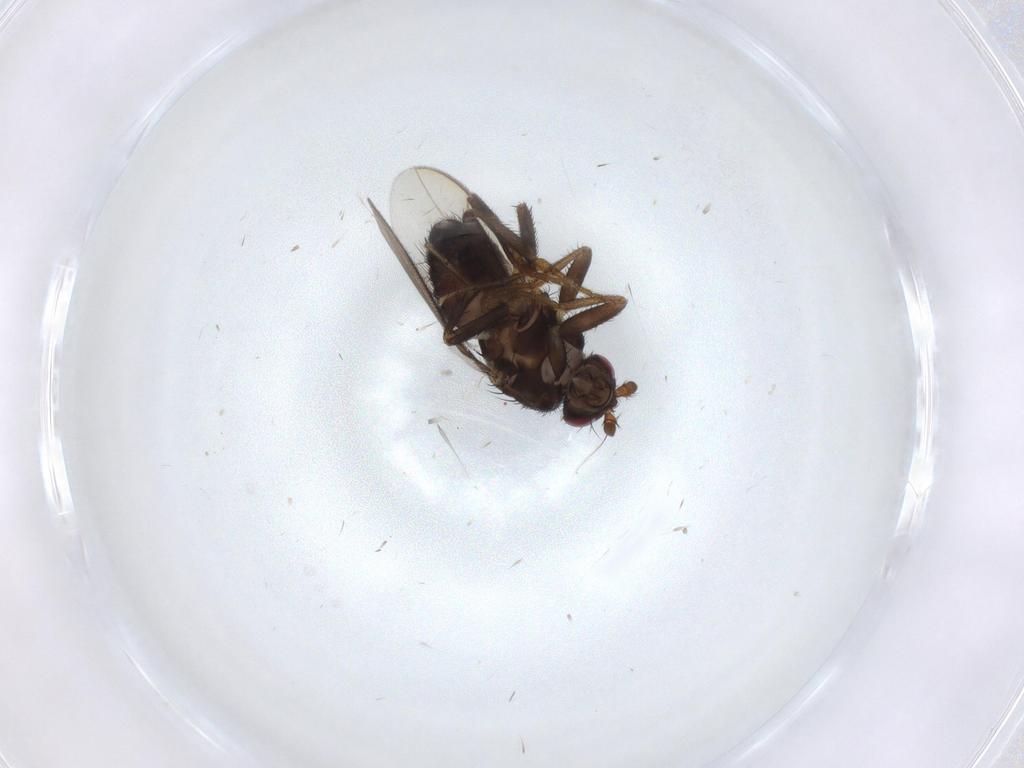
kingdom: Animalia
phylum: Arthropoda
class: Insecta
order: Diptera
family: Sphaeroceridae
